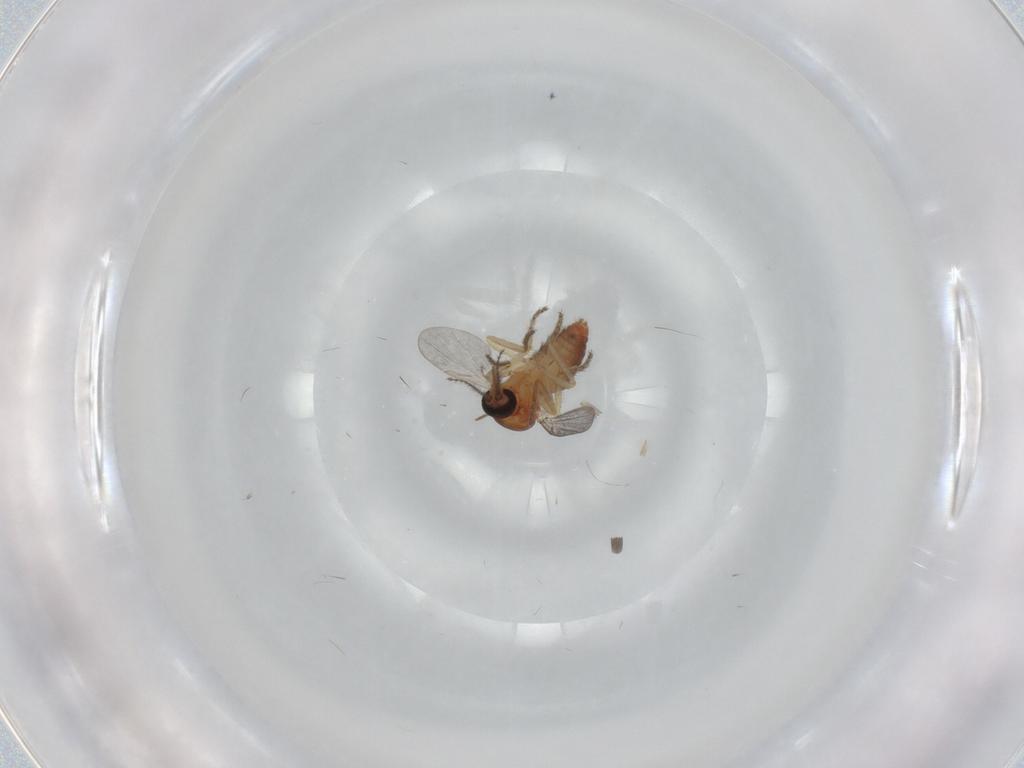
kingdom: Animalia
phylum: Arthropoda
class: Insecta
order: Diptera
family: Ceratopogonidae
